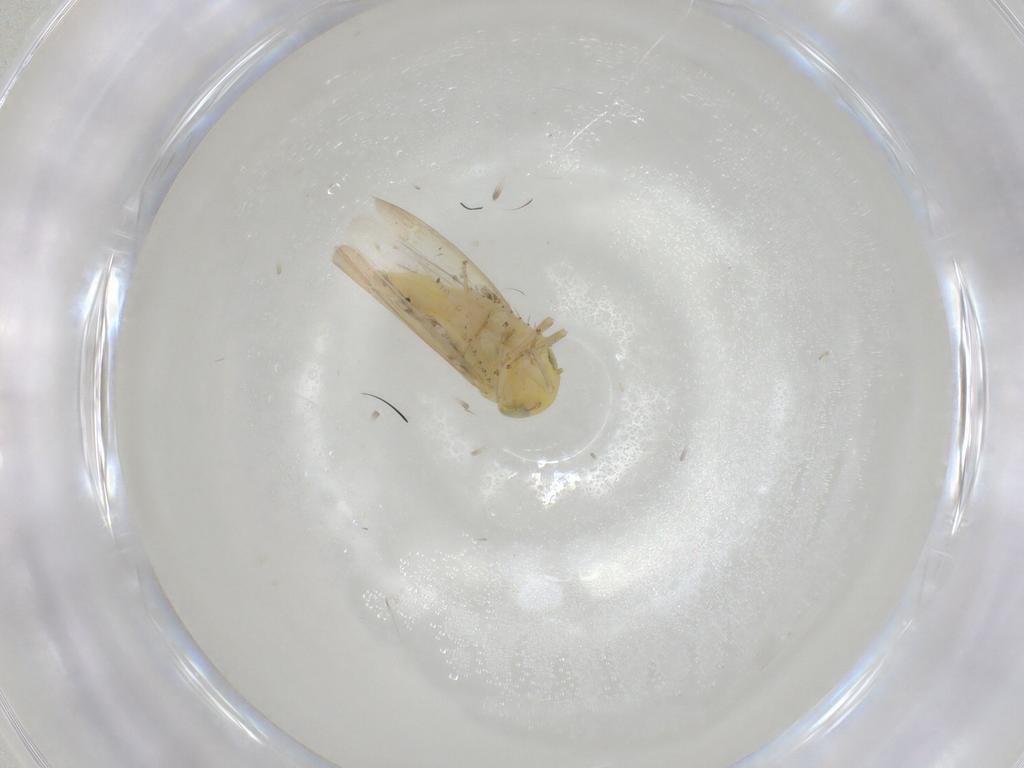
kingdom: Animalia
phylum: Arthropoda
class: Insecta
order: Hemiptera
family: Cicadellidae
